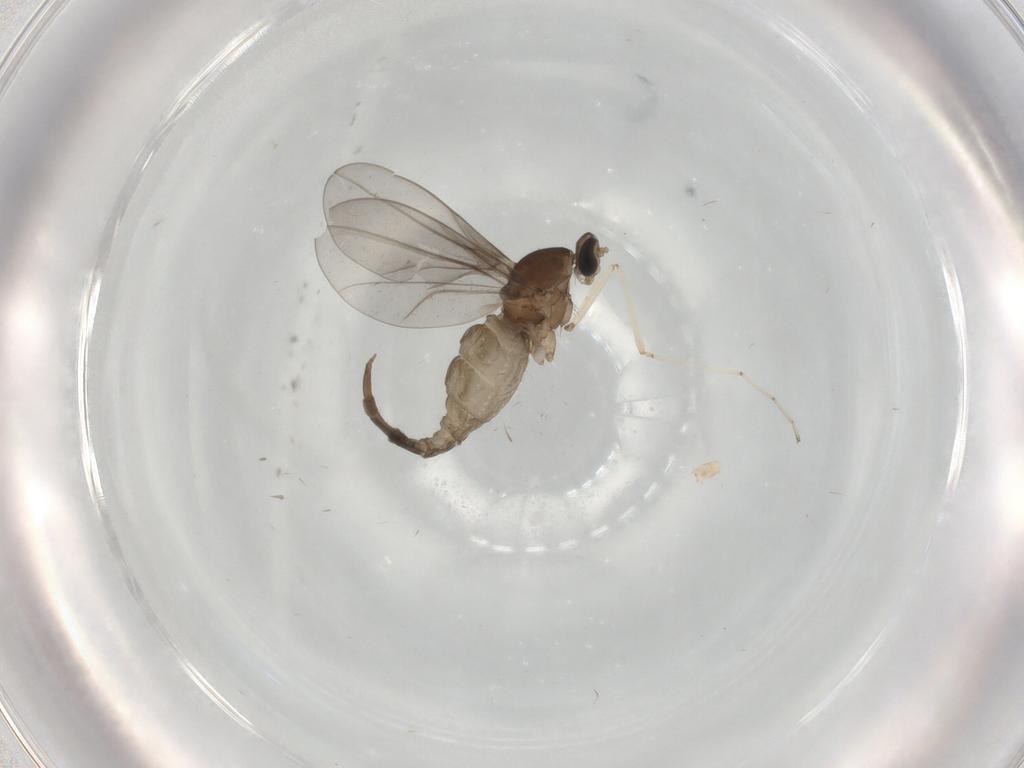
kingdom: Animalia
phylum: Arthropoda
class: Insecta
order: Diptera
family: Cecidomyiidae
